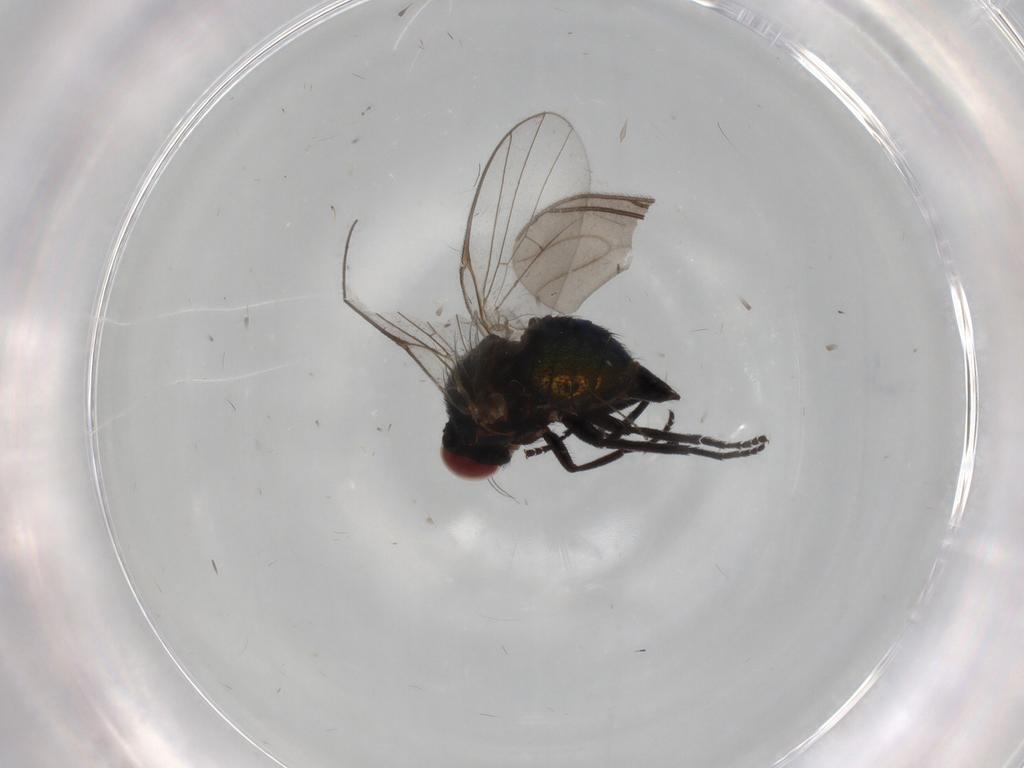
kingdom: Animalia
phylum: Arthropoda
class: Insecta
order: Diptera
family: Agromyzidae
